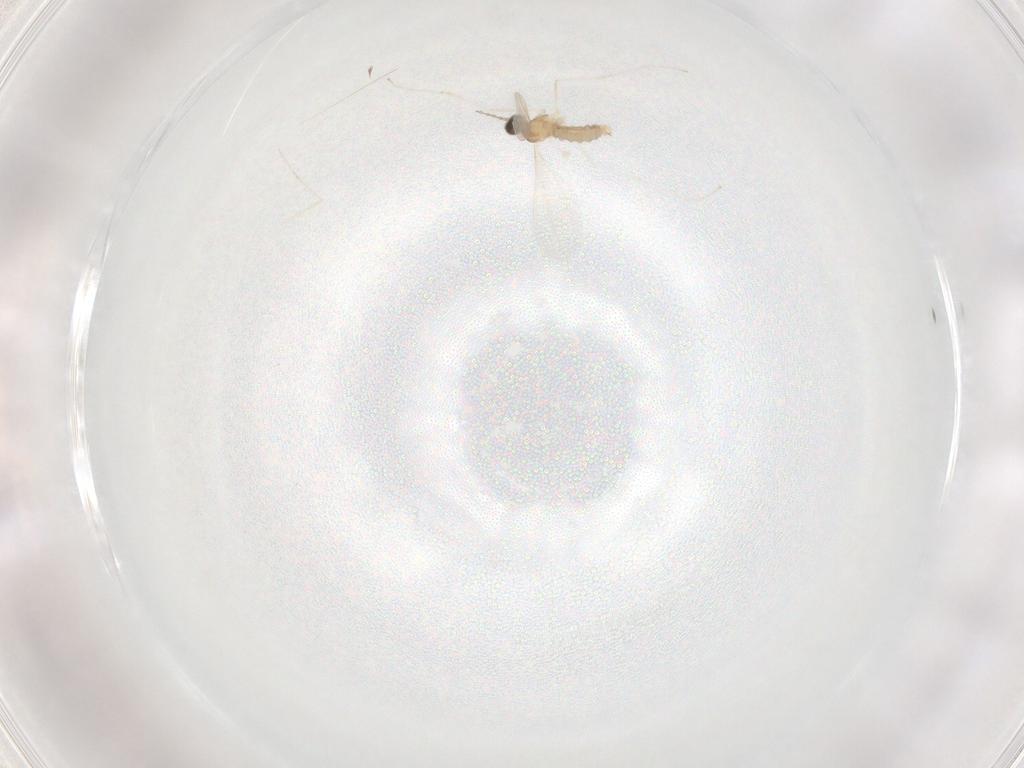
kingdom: Animalia
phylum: Arthropoda
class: Insecta
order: Diptera
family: Cecidomyiidae
